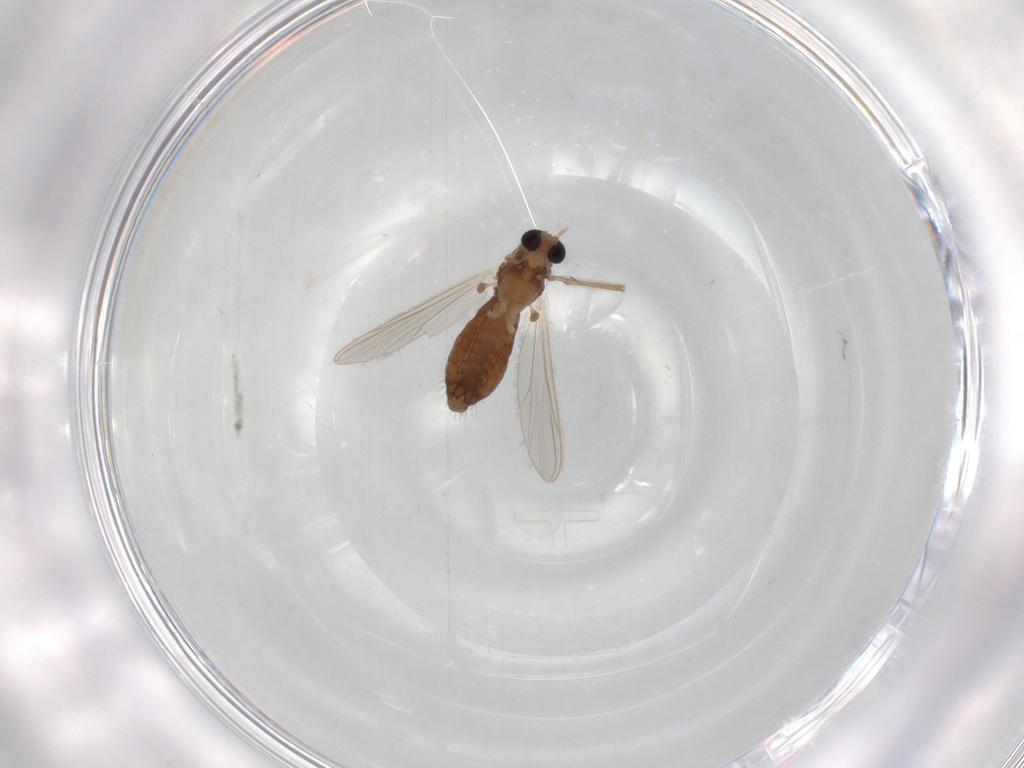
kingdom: Animalia
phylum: Arthropoda
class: Insecta
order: Diptera
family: Chironomidae
